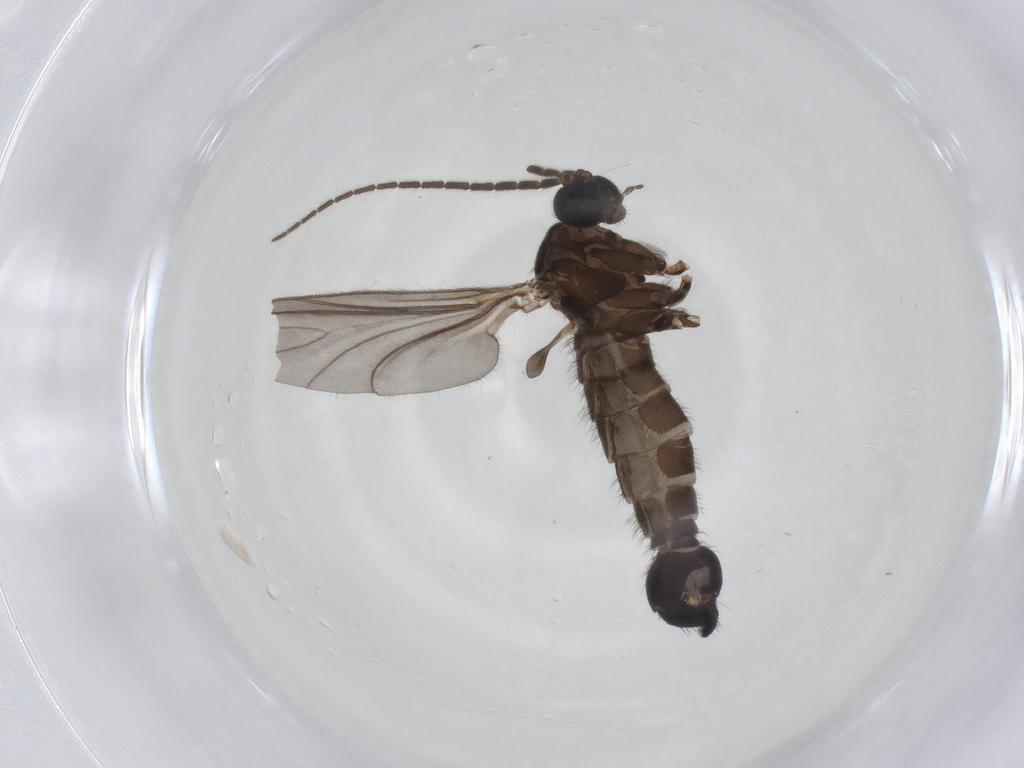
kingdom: Animalia
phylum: Arthropoda
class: Insecta
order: Diptera
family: Sciaridae
